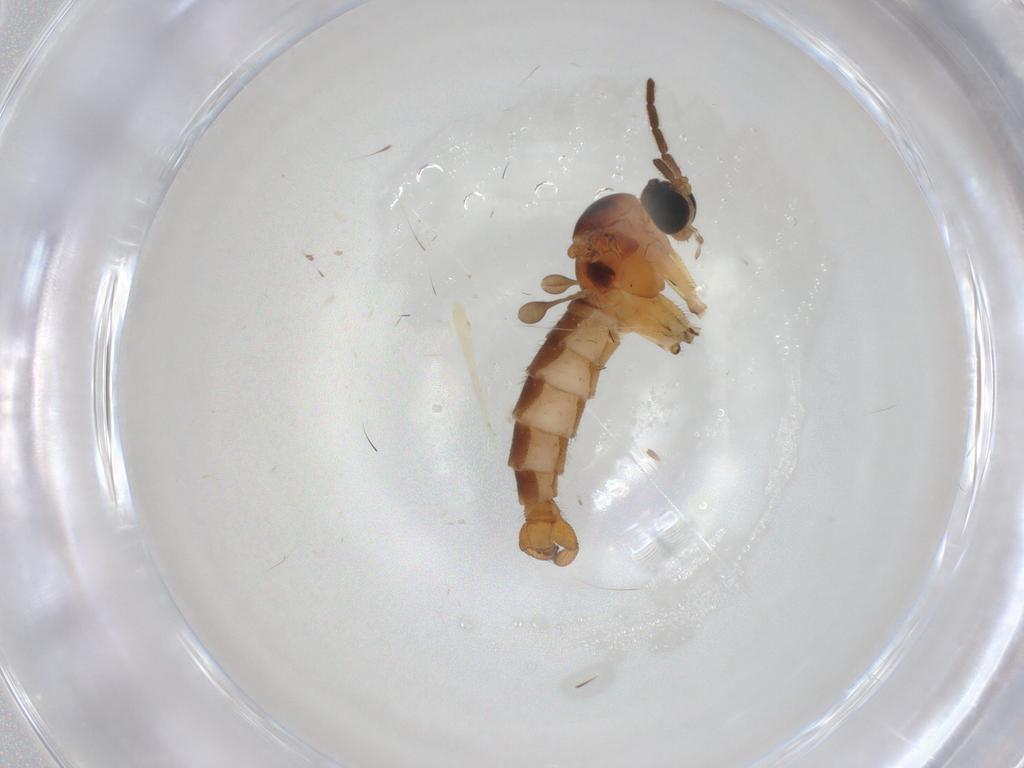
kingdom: Animalia
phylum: Arthropoda
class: Insecta
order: Diptera
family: Sciaridae
